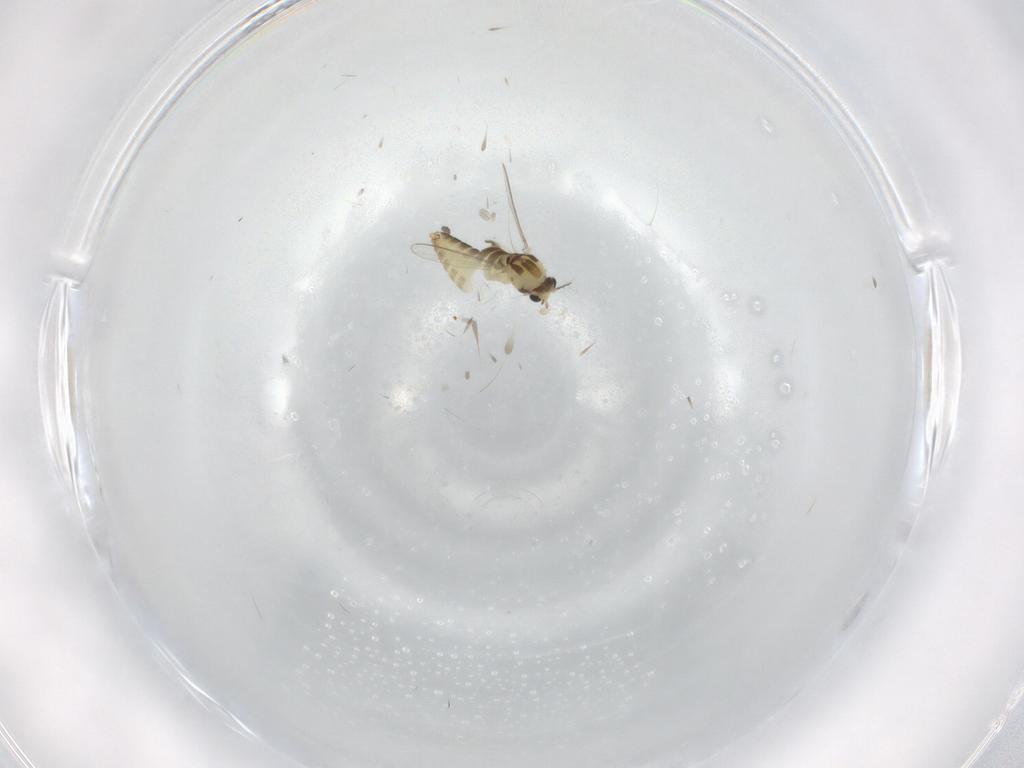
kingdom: Animalia
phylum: Arthropoda
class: Insecta
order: Diptera
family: Chironomidae
